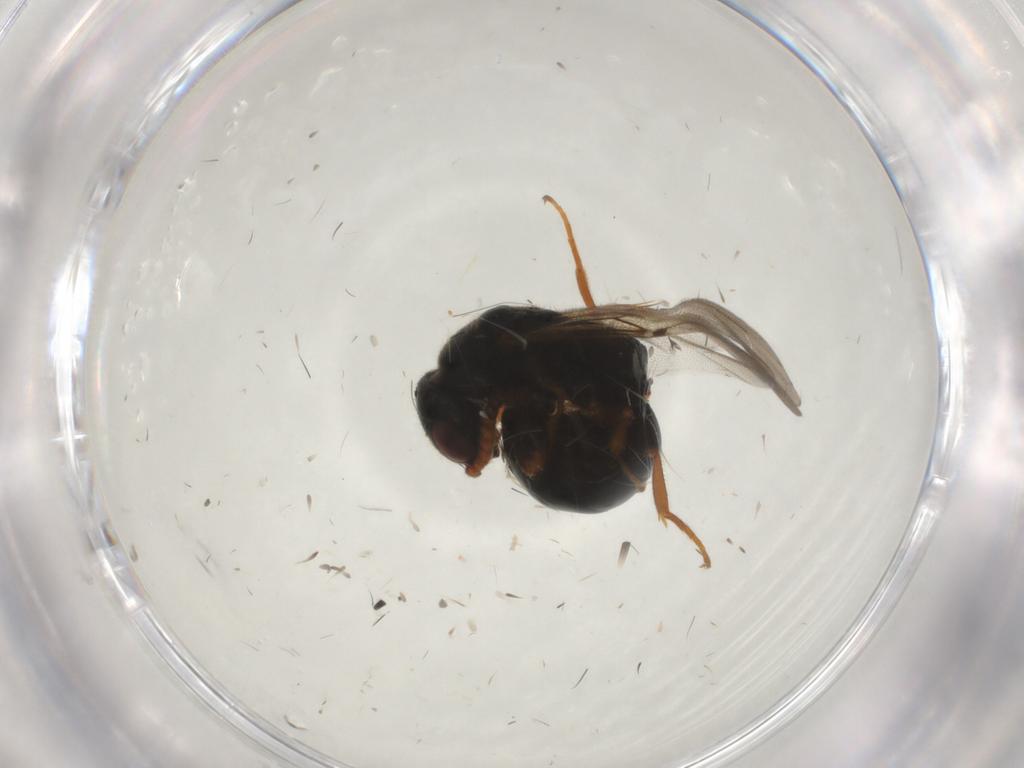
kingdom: Animalia
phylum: Arthropoda
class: Insecta
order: Hymenoptera
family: Bethylidae
